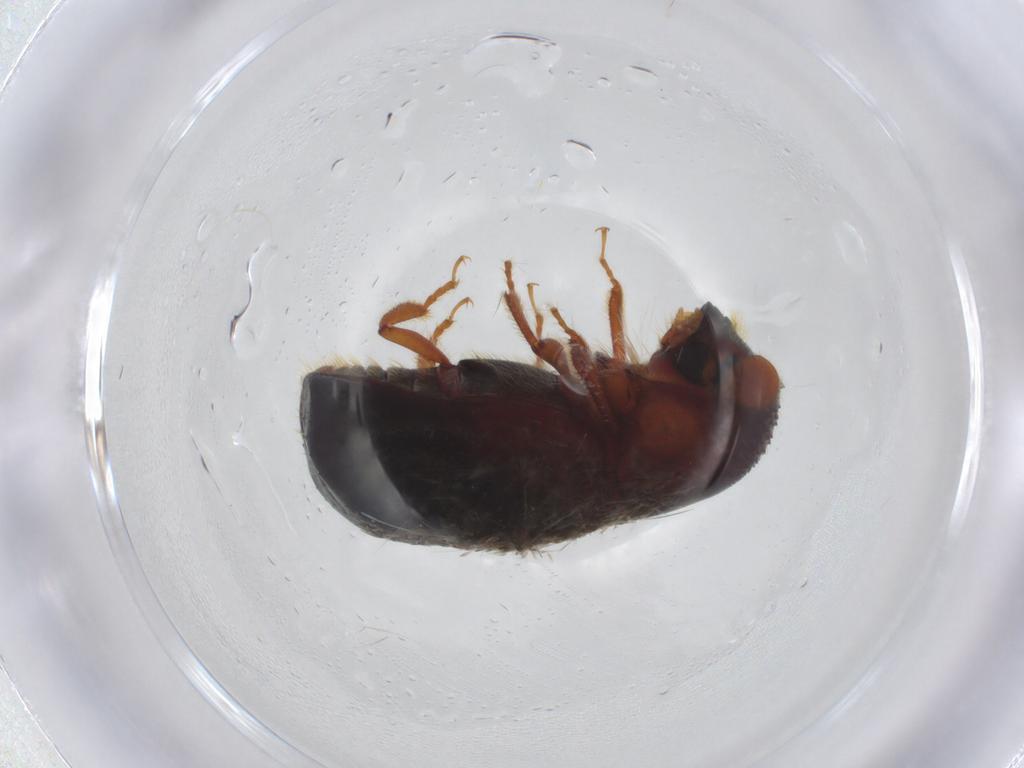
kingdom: Animalia
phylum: Arthropoda
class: Insecta
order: Coleoptera
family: Curculionidae
